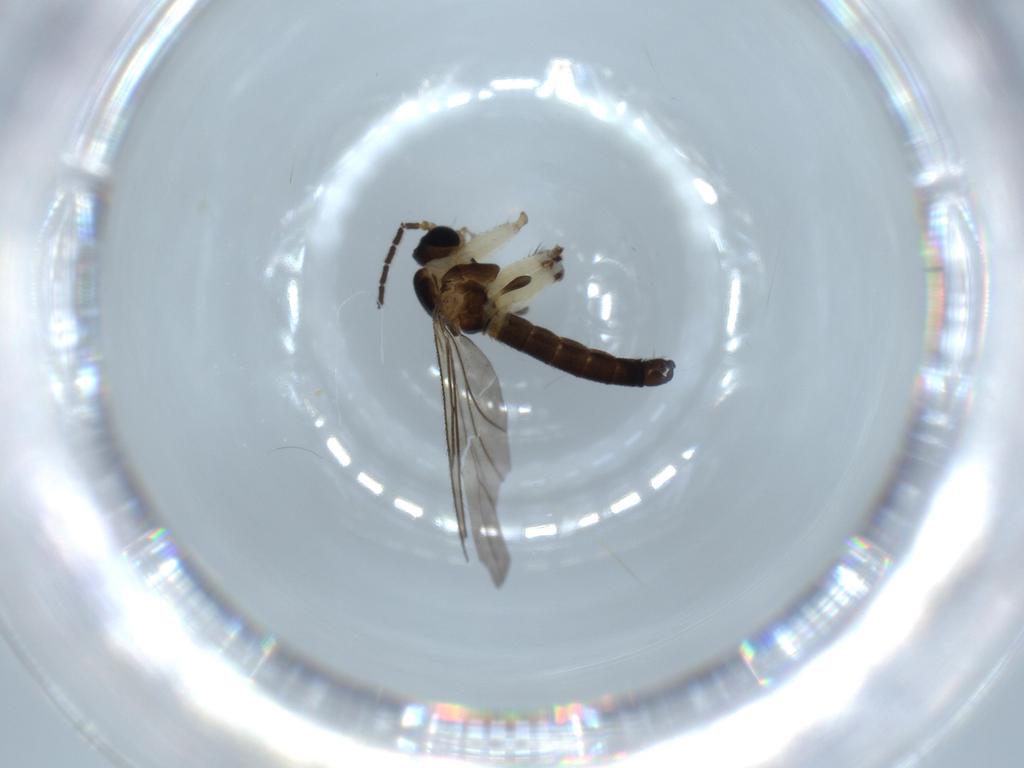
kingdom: Animalia
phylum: Arthropoda
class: Insecta
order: Diptera
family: Sciaridae
